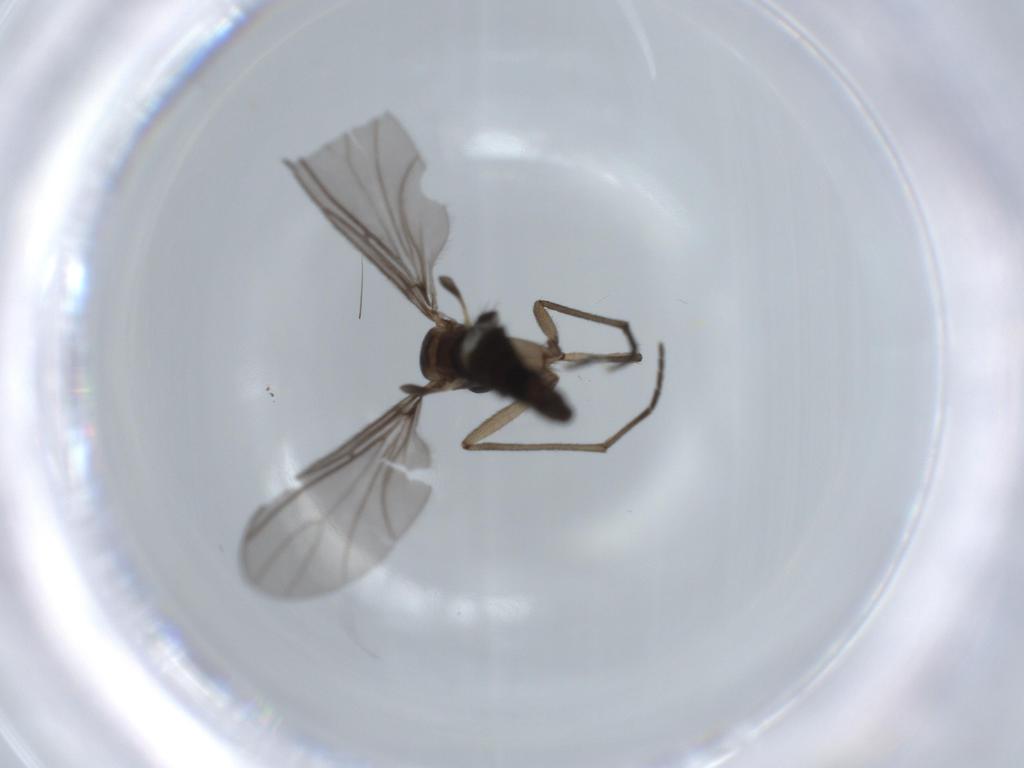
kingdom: Animalia
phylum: Arthropoda
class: Insecta
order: Diptera
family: Sciaridae
